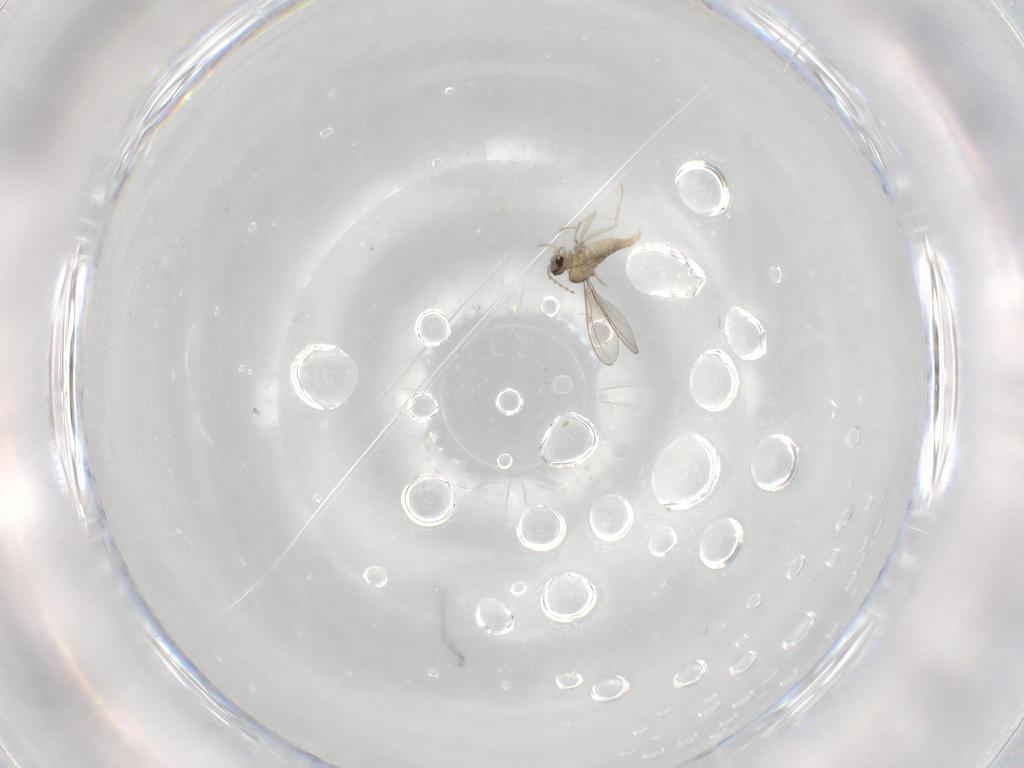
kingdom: Animalia
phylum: Arthropoda
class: Insecta
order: Diptera
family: Cecidomyiidae
